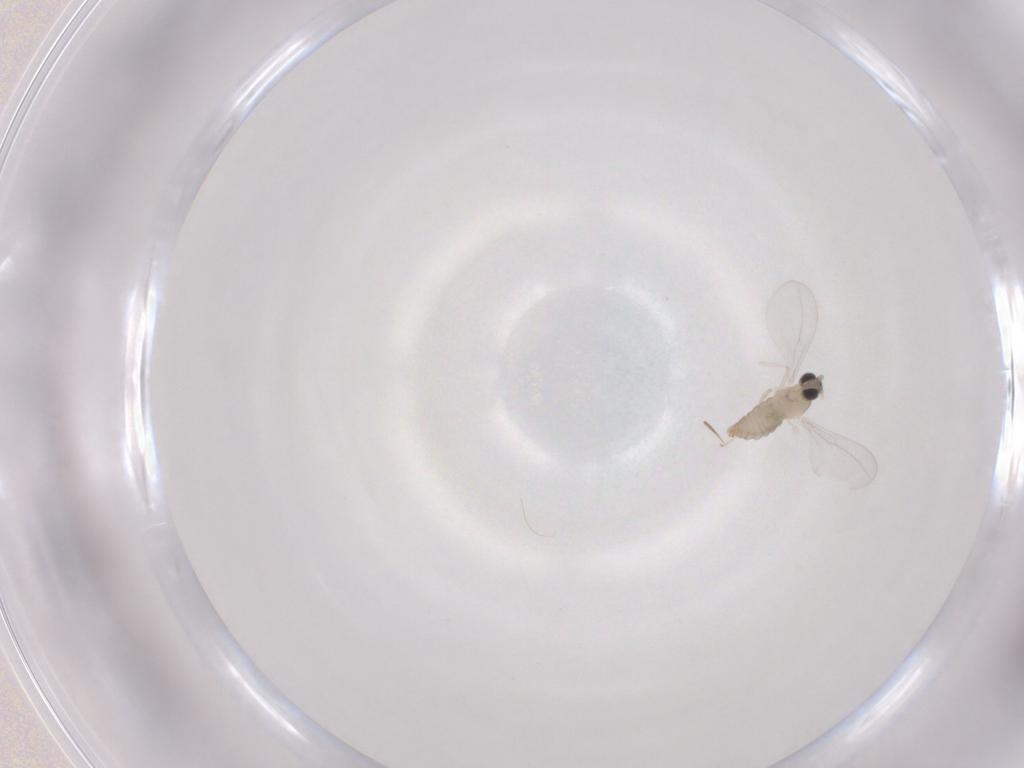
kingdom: Animalia
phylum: Arthropoda
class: Insecta
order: Diptera
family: Cecidomyiidae
